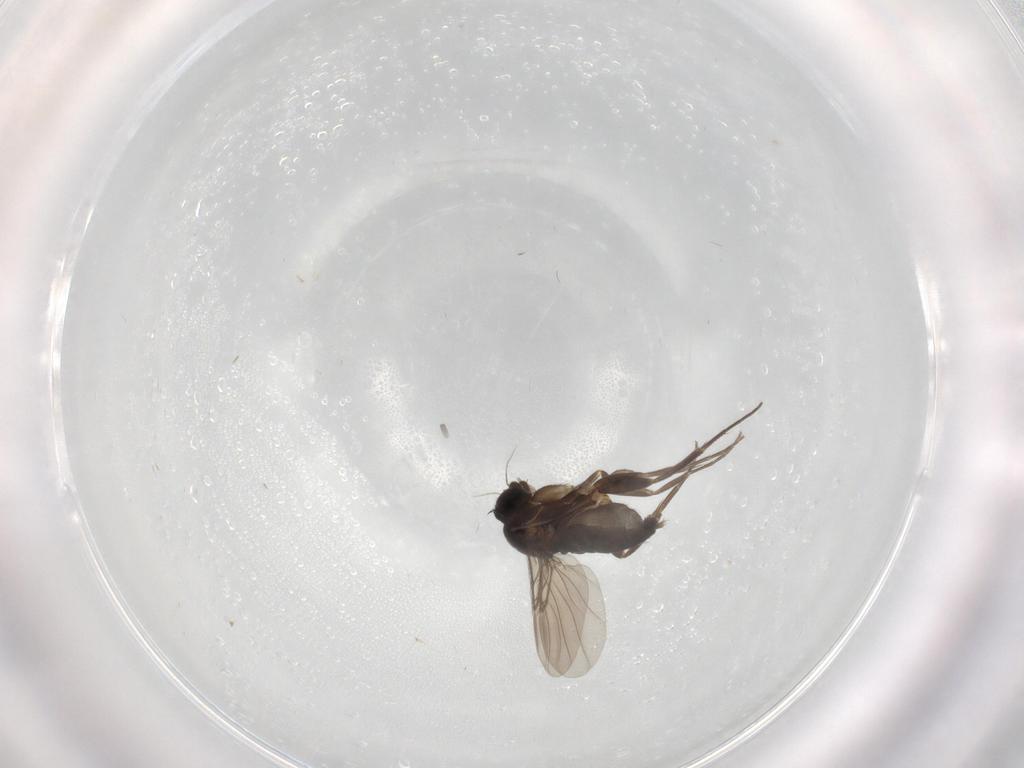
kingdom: Animalia
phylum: Arthropoda
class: Insecta
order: Diptera
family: Phoridae
